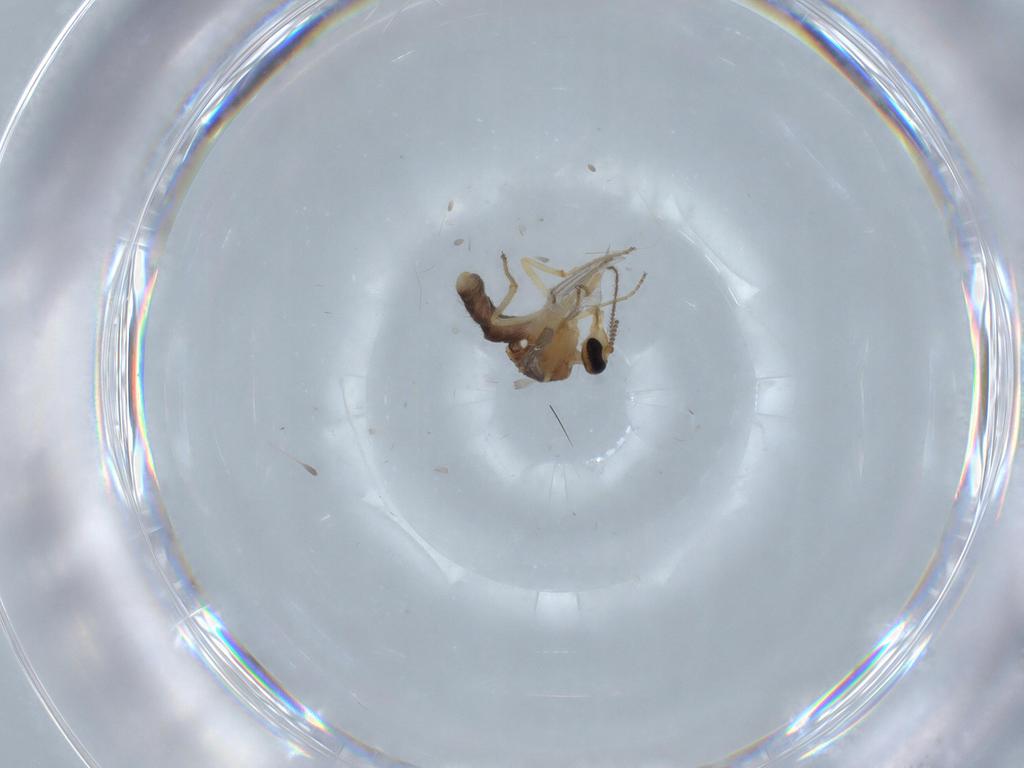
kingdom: Animalia
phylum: Arthropoda
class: Insecta
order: Diptera
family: Ceratopogonidae
